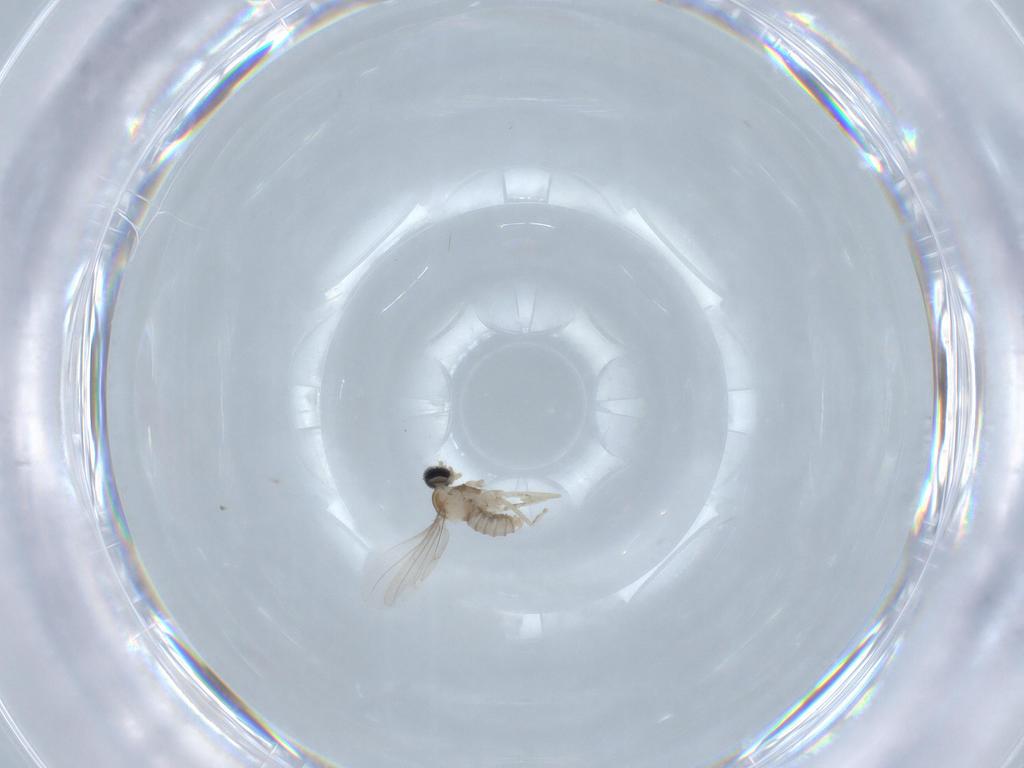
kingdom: Animalia
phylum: Arthropoda
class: Insecta
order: Diptera
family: Cecidomyiidae
